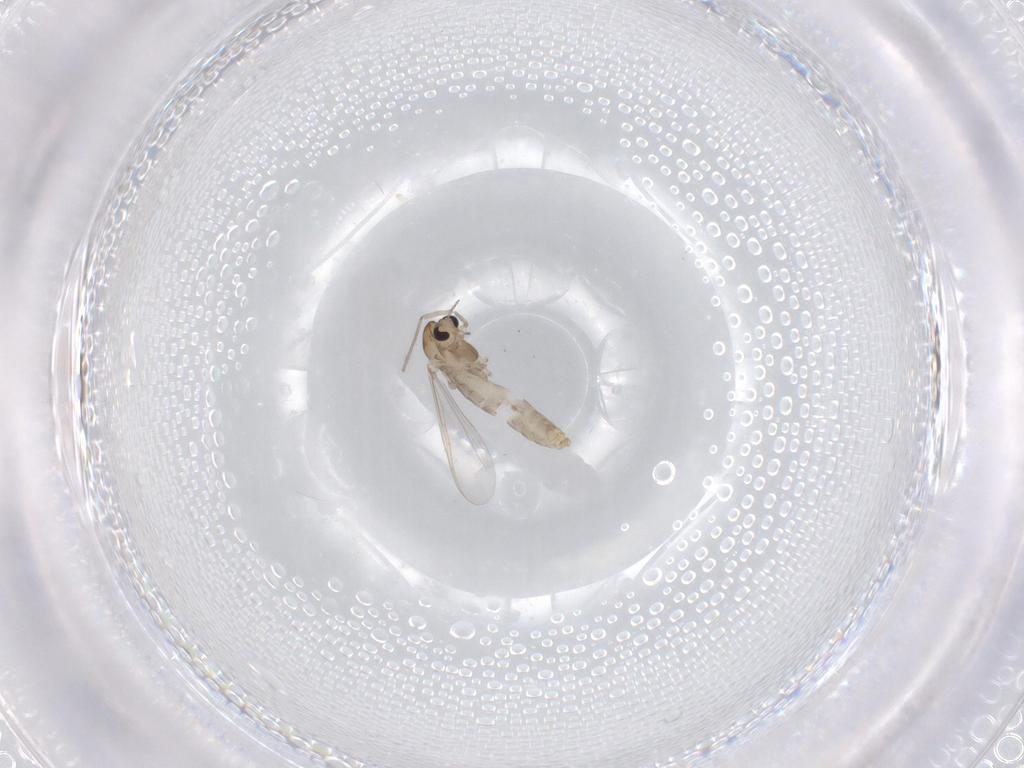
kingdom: Animalia
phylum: Arthropoda
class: Insecta
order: Diptera
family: Chironomidae
